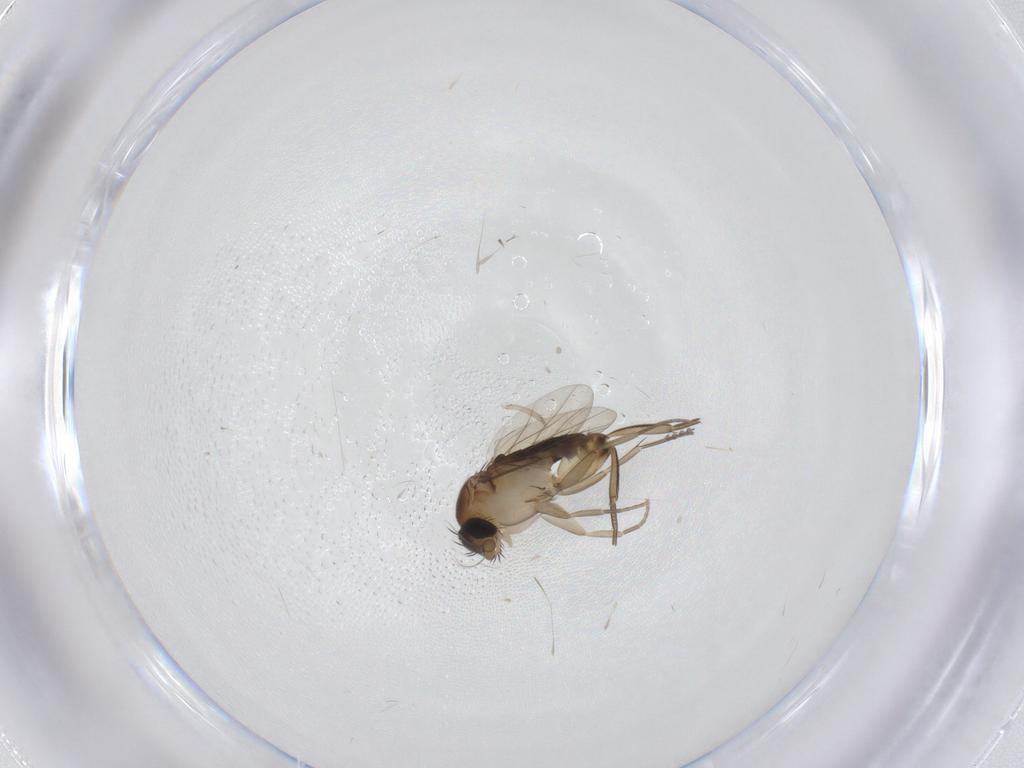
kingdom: Animalia
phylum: Arthropoda
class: Insecta
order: Diptera
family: Phoridae
